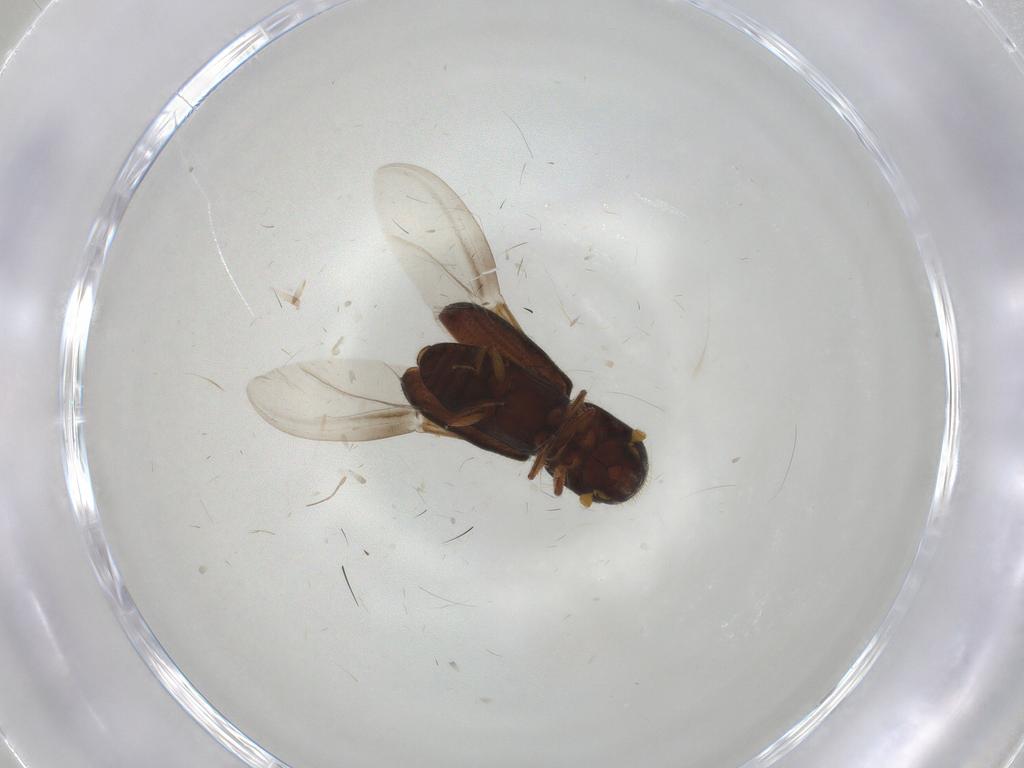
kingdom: Animalia
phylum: Arthropoda
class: Insecta
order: Coleoptera
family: Curculionidae
